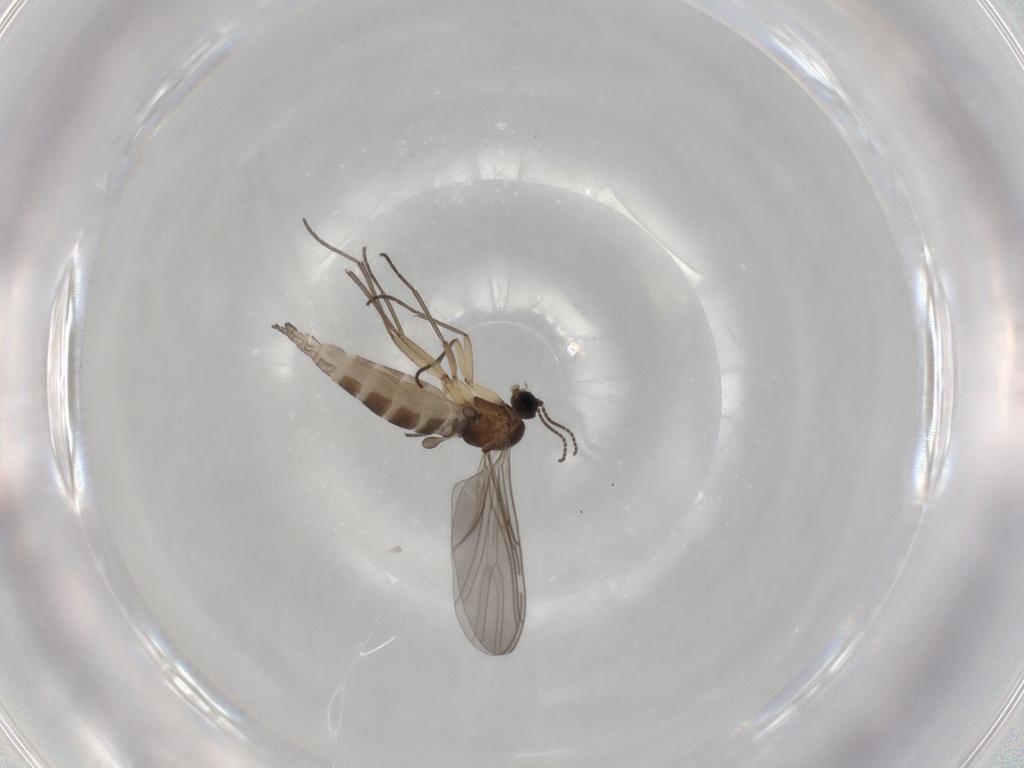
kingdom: Animalia
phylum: Arthropoda
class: Insecta
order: Diptera
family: Sciaridae
